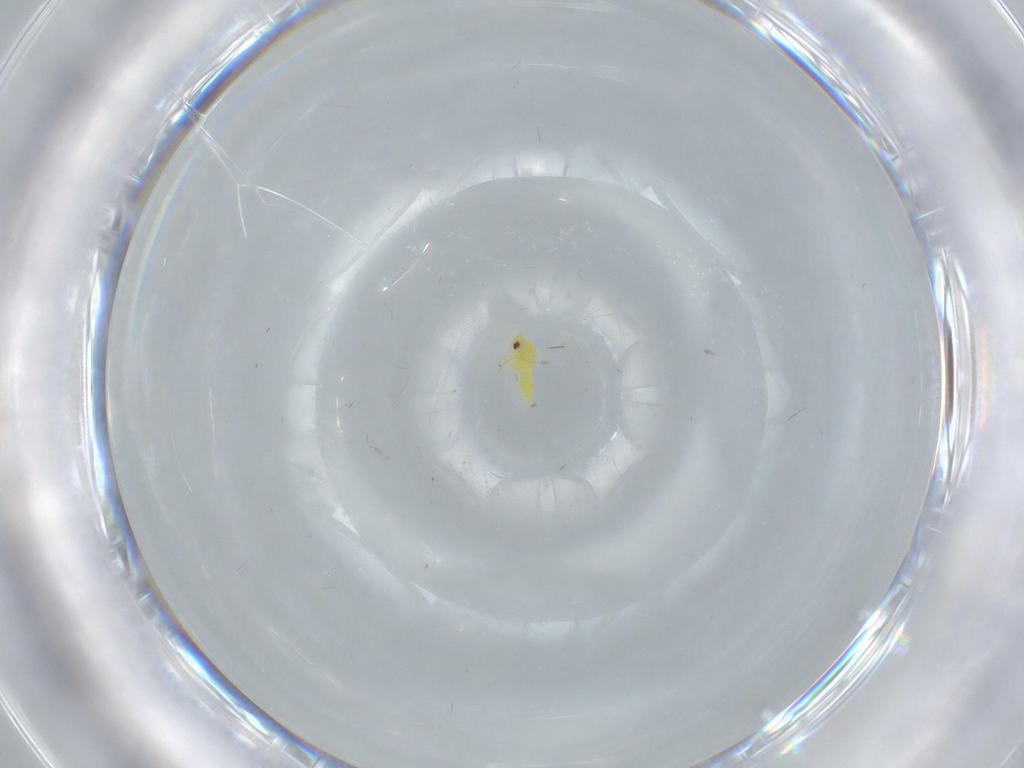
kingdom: Animalia
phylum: Arthropoda
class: Insecta
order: Hemiptera
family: Aleyrodidae
